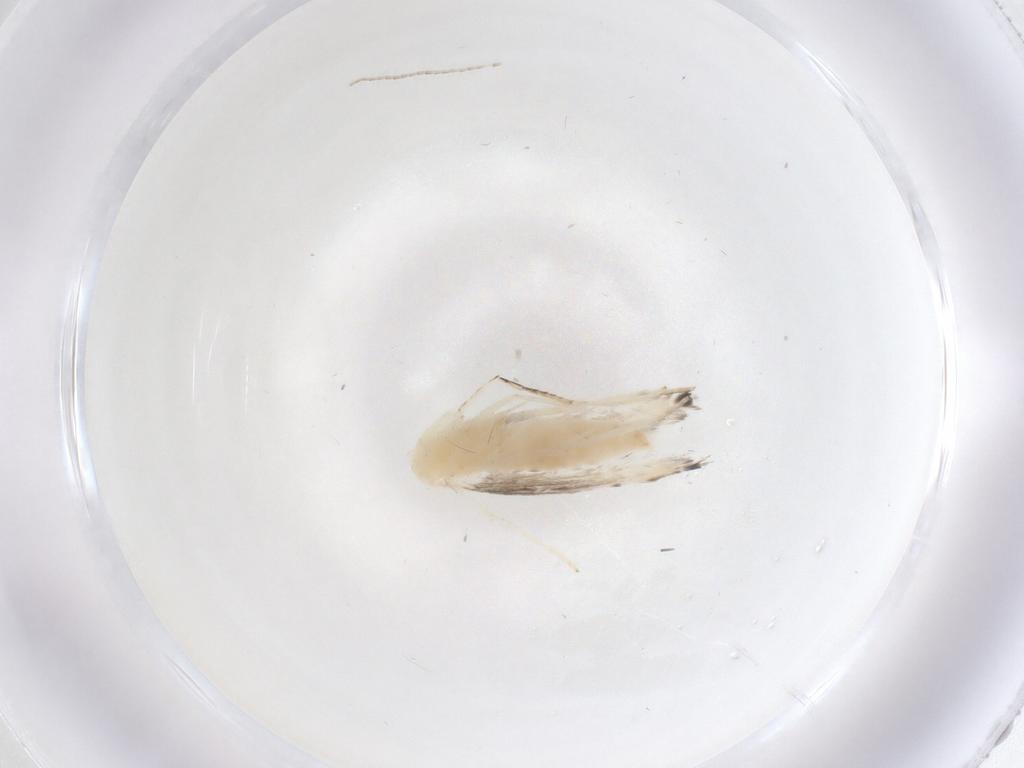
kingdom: Animalia
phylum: Arthropoda
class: Insecta
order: Lepidoptera
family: Gracillariidae
